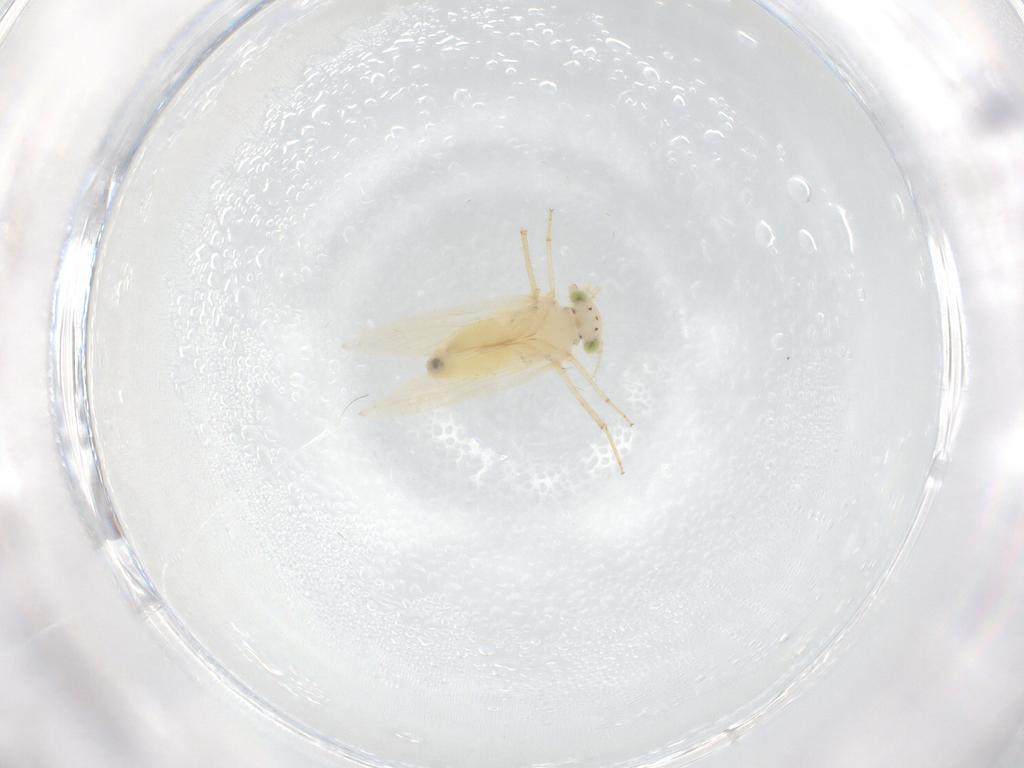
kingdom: Animalia
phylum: Arthropoda
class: Insecta
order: Psocodea
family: Lepidopsocidae
